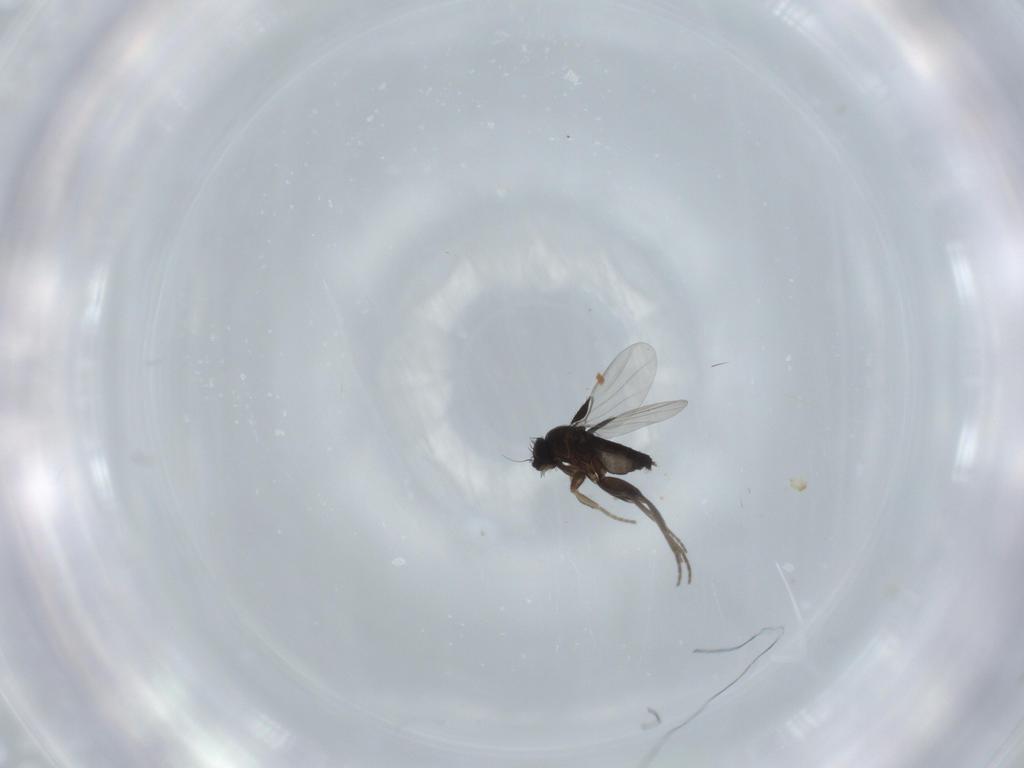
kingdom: Animalia
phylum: Arthropoda
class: Insecta
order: Diptera
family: Phoridae
